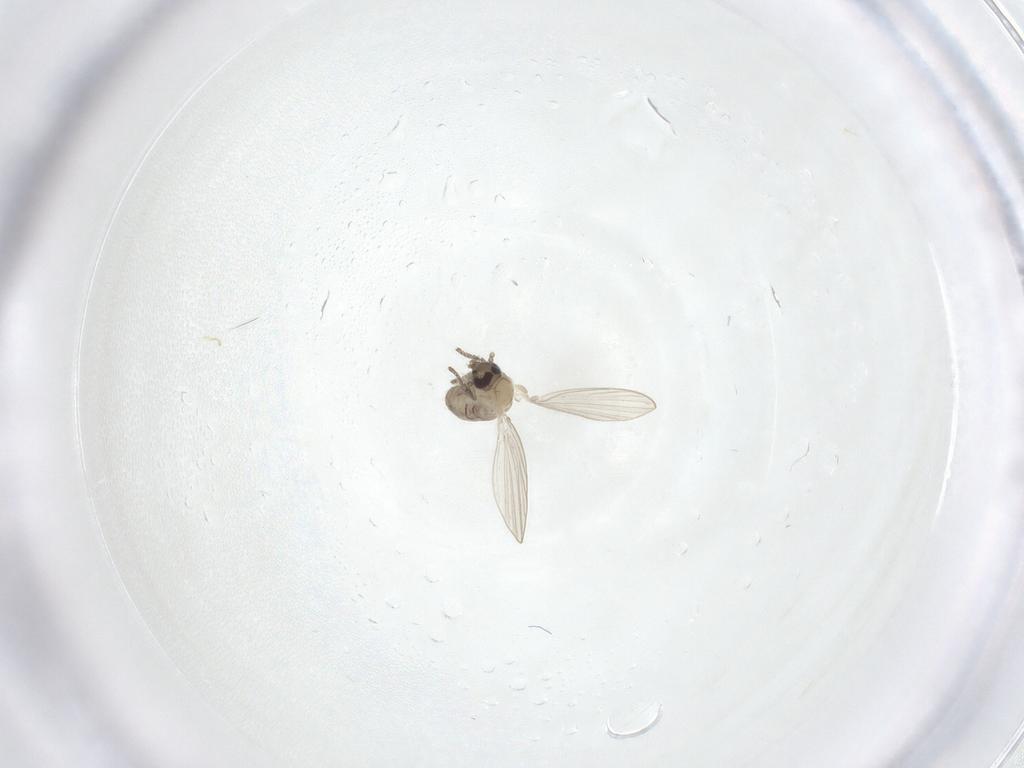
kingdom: Animalia
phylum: Arthropoda
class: Insecta
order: Diptera
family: Psychodidae
